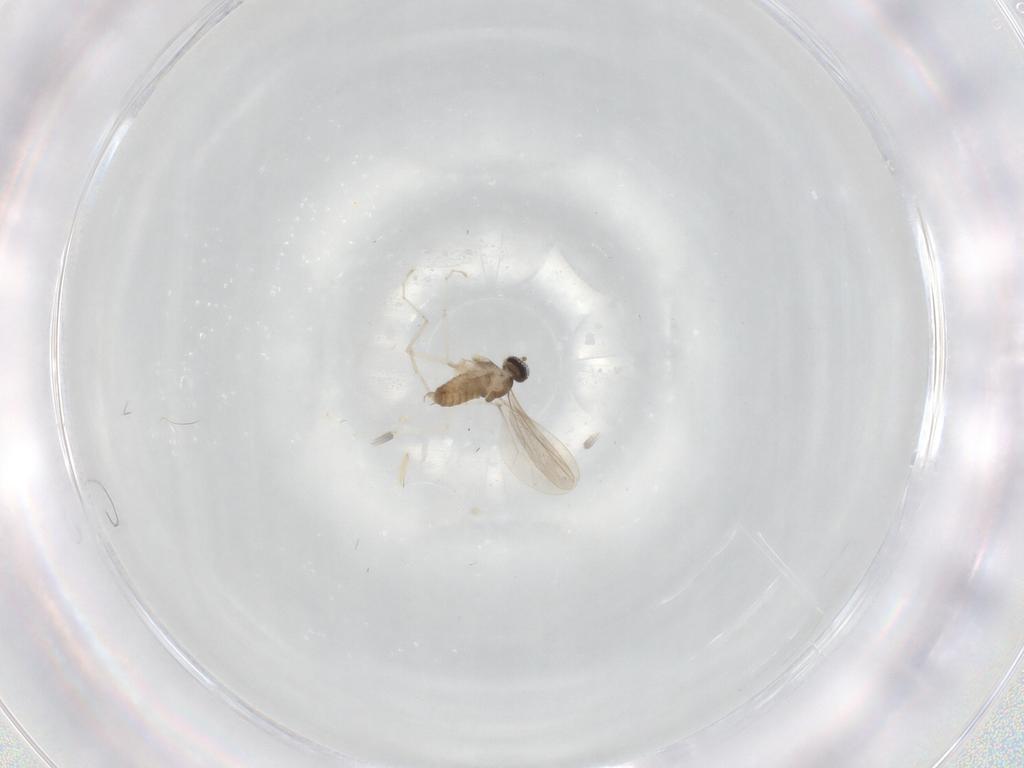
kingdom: Animalia
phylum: Arthropoda
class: Insecta
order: Diptera
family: Cecidomyiidae
